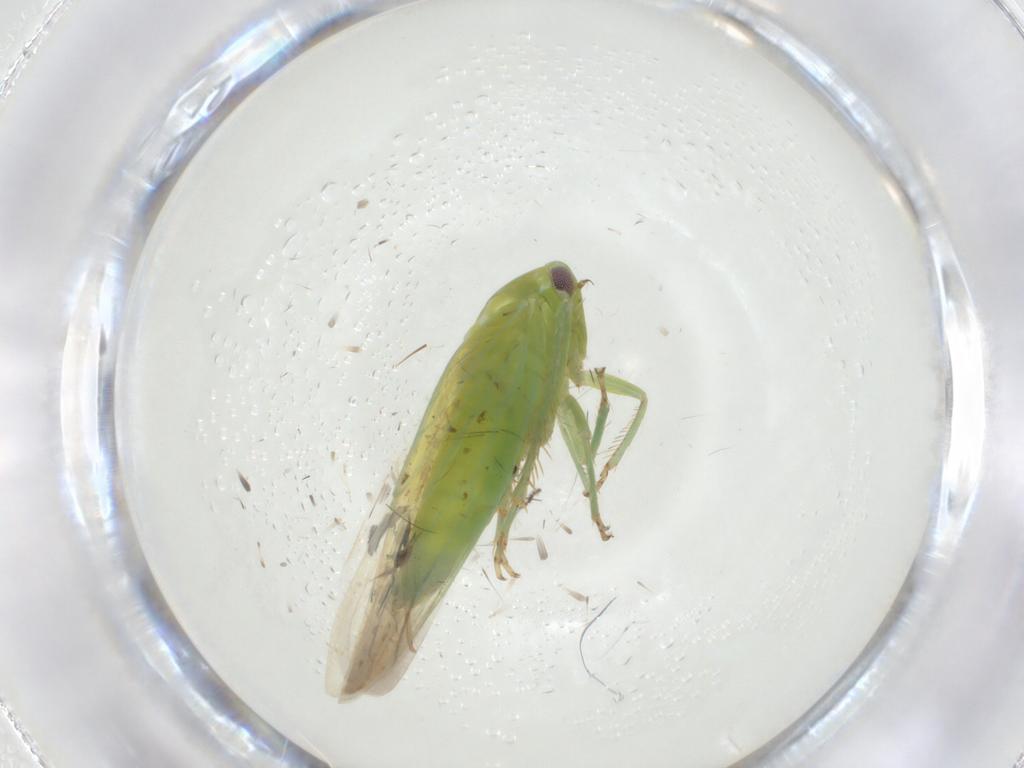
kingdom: Animalia
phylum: Arthropoda
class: Insecta
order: Hemiptera
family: Cicadellidae
